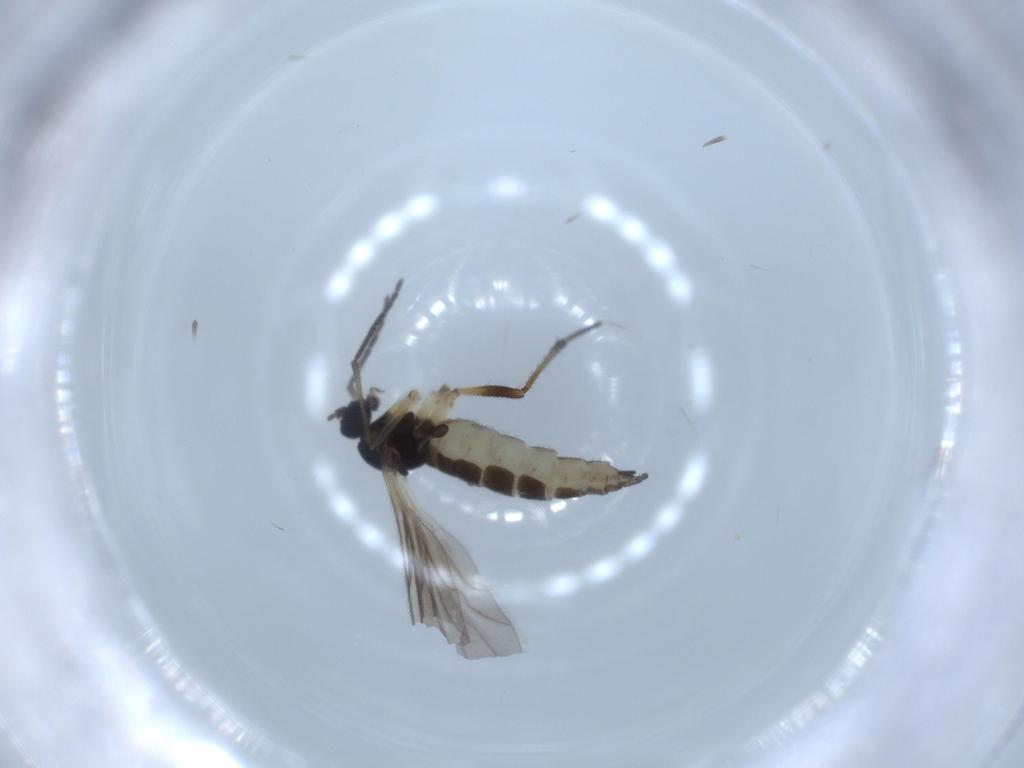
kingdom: Animalia
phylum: Arthropoda
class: Insecta
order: Diptera
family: Sciaridae
